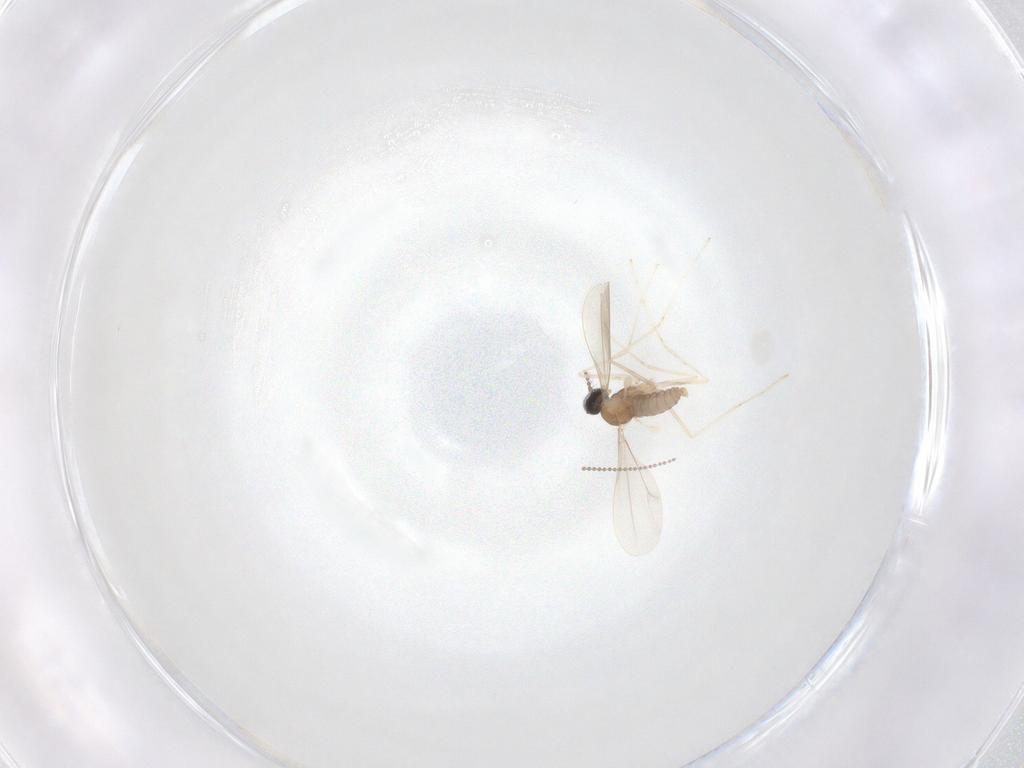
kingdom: Animalia
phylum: Arthropoda
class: Insecta
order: Diptera
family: Cecidomyiidae
